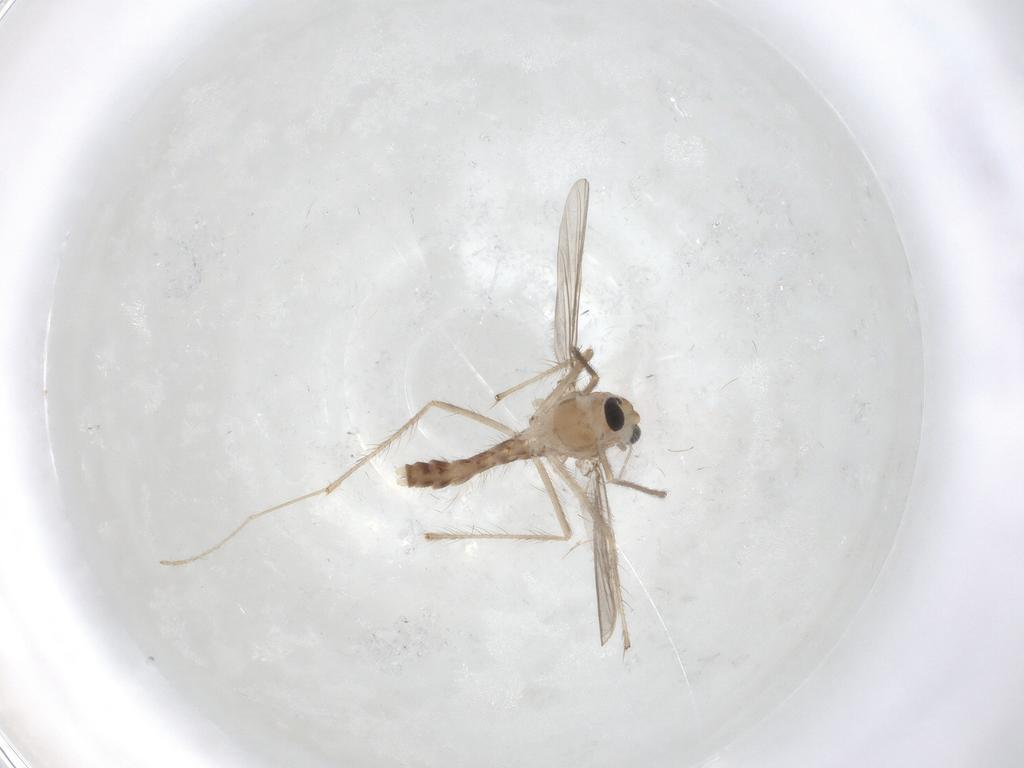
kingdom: Animalia
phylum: Arthropoda
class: Insecta
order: Diptera
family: Chironomidae
